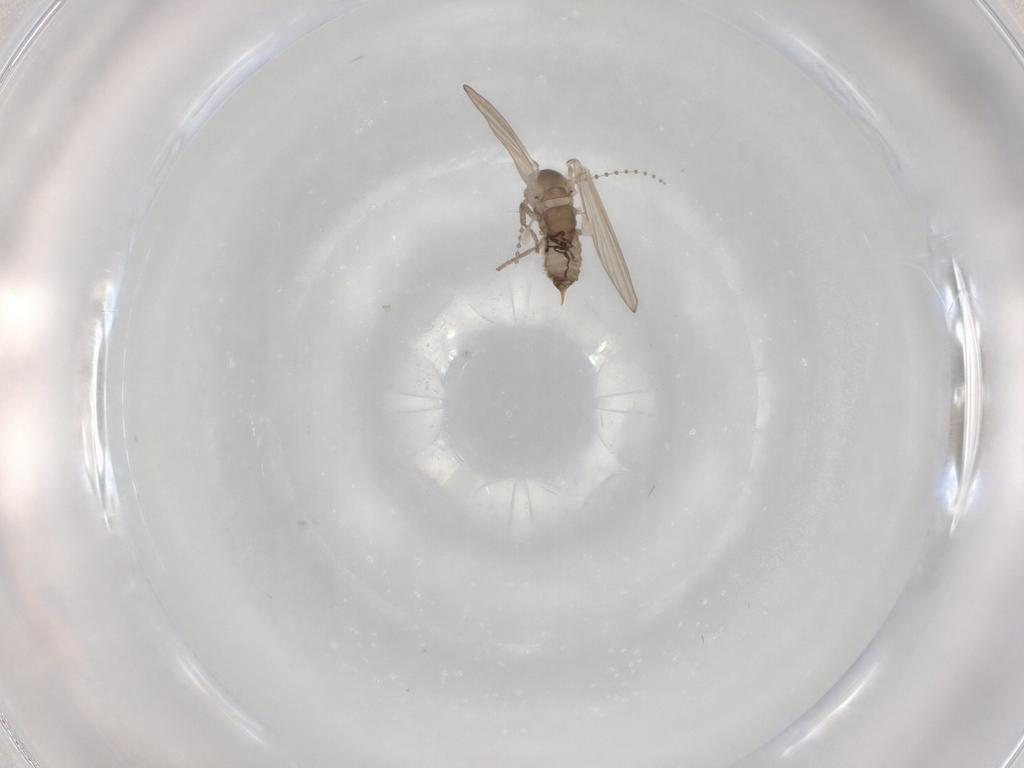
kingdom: Animalia
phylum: Arthropoda
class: Insecta
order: Diptera
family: Psychodidae
